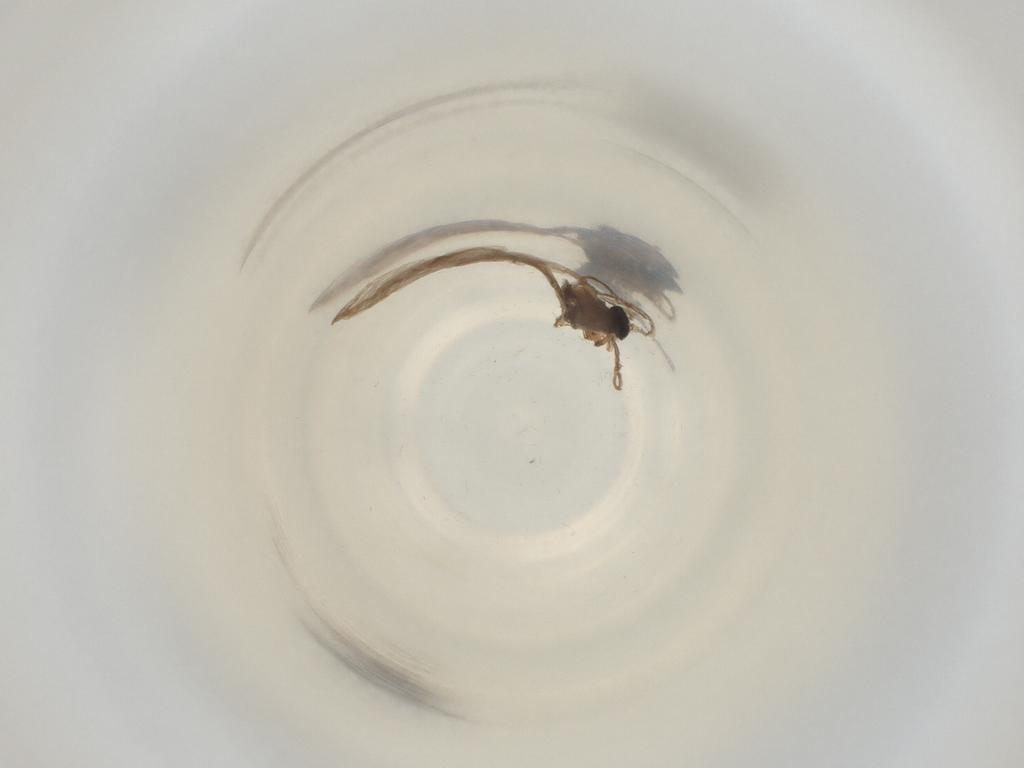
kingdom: Animalia
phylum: Arthropoda
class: Insecta
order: Diptera
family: Cecidomyiidae
